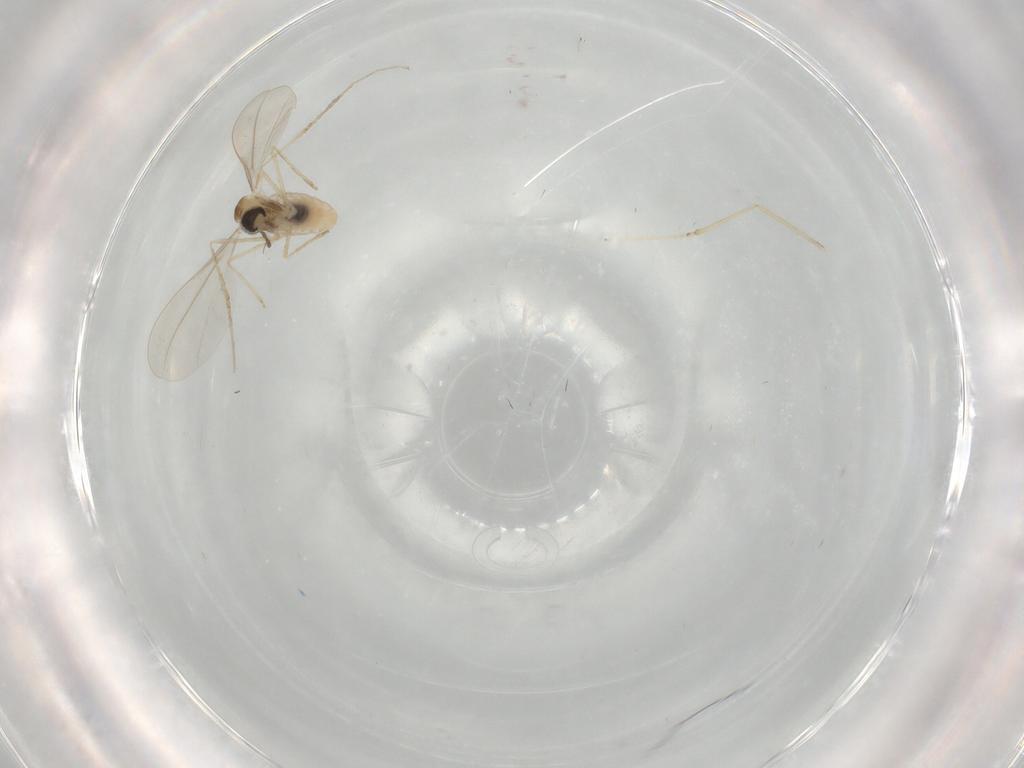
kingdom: Animalia
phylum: Arthropoda
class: Insecta
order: Diptera
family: Cecidomyiidae
